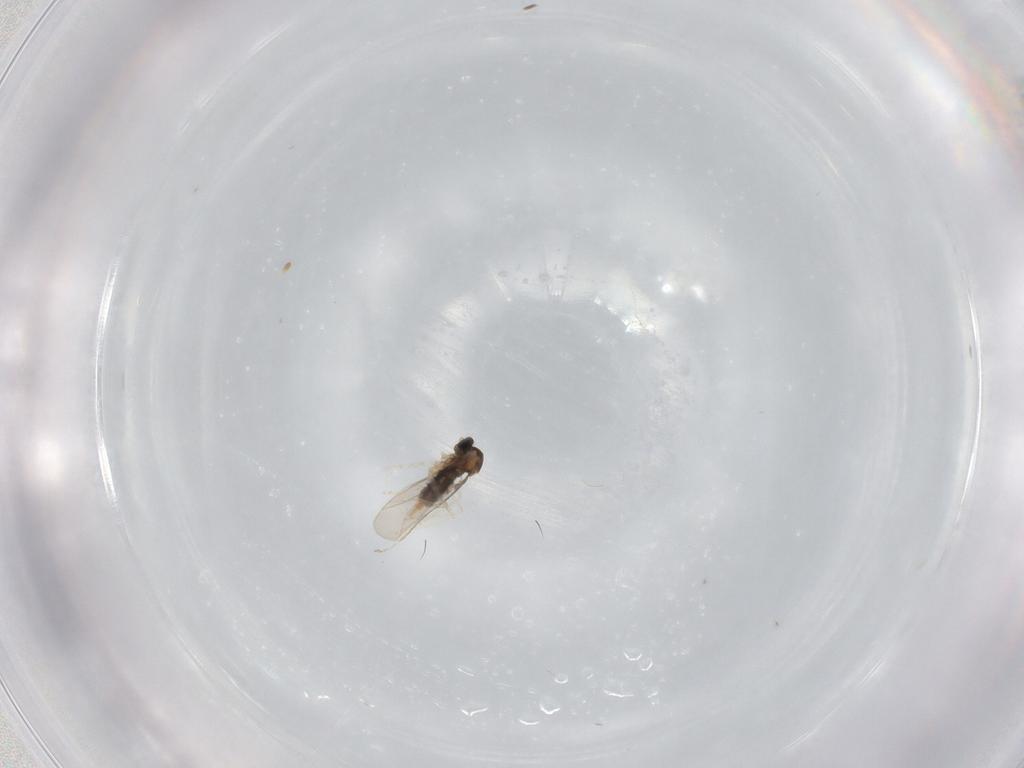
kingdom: Animalia
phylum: Arthropoda
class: Insecta
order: Diptera
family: Cecidomyiidae
